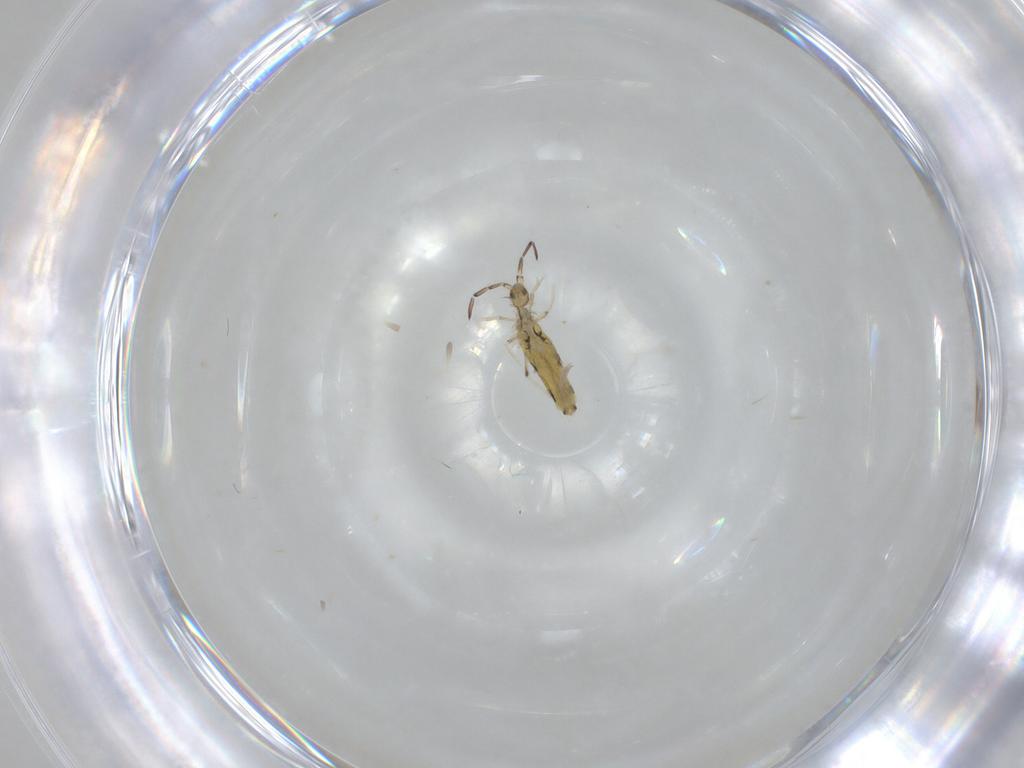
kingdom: Animalia
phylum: Arthropoda
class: Collembola
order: Entomobryomorpha
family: Entomobryidae
